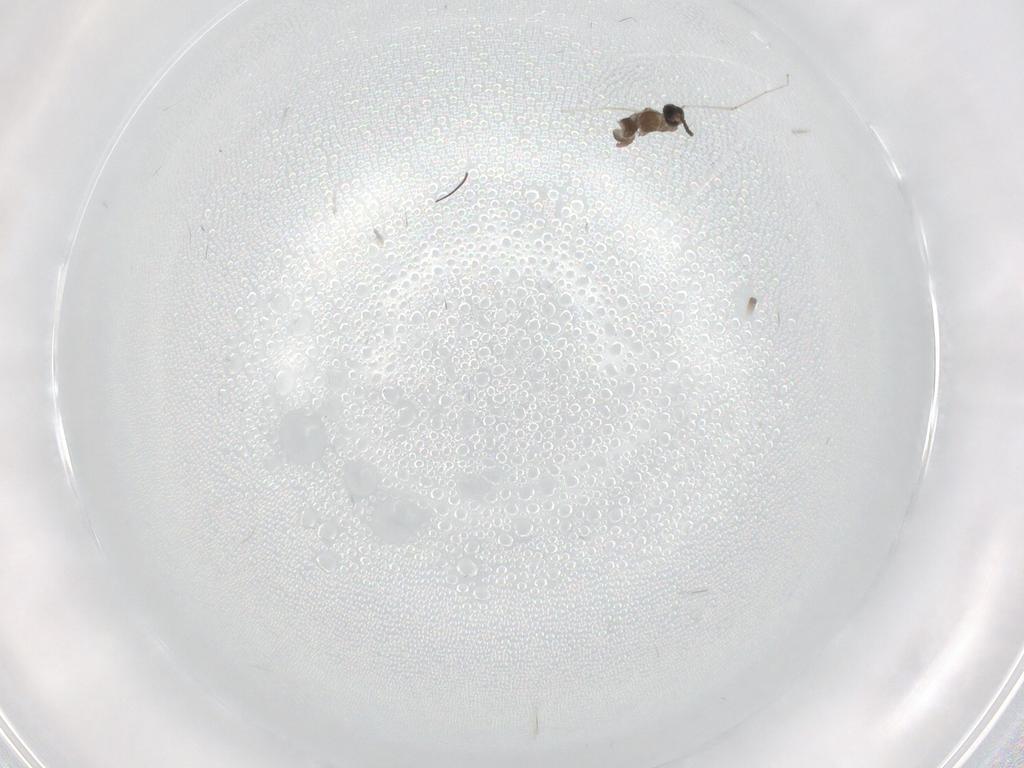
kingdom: Animalia
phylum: Arthropoda
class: Insecta
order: Diptera
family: Cecidomyiidae
